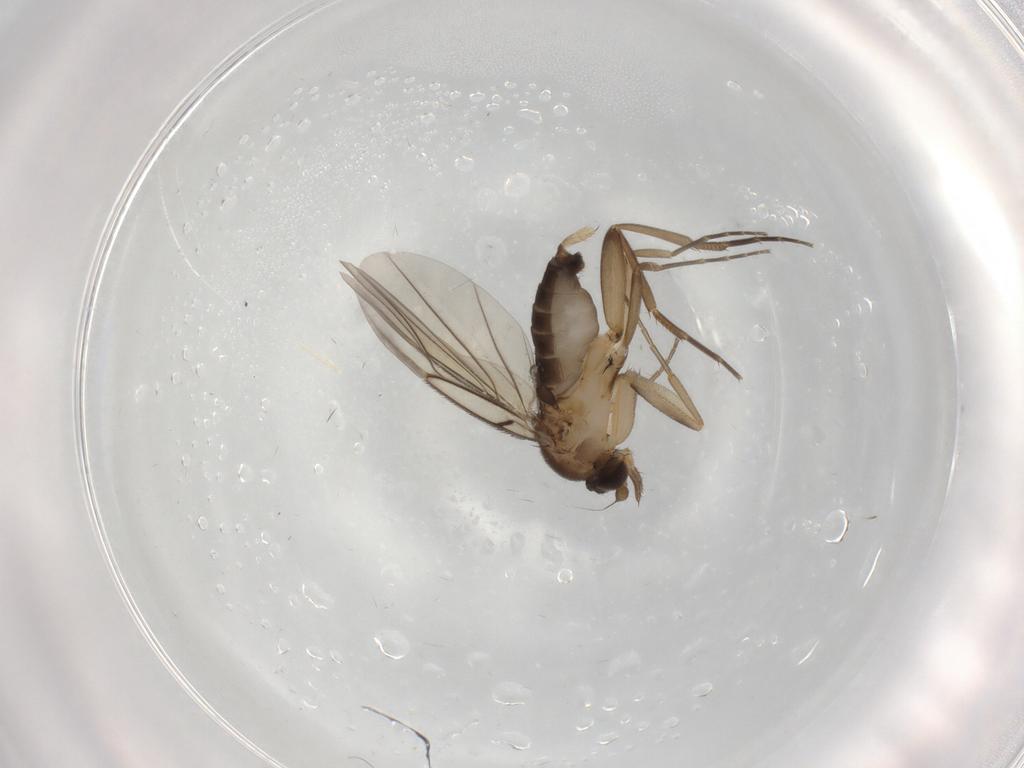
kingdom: Animalia
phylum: Arthropoda
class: Insecta
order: Diptera
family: Phoridae
